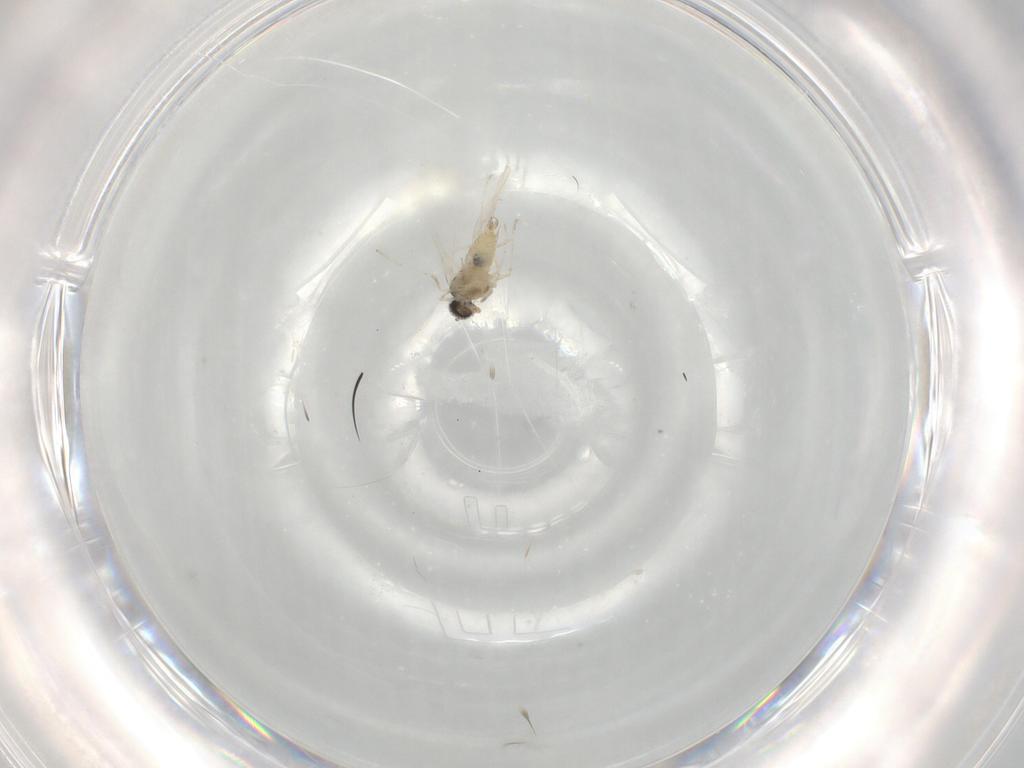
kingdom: Animalia
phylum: Arthropoda
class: Insecta
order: Diptera
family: Cecidomyiidae
